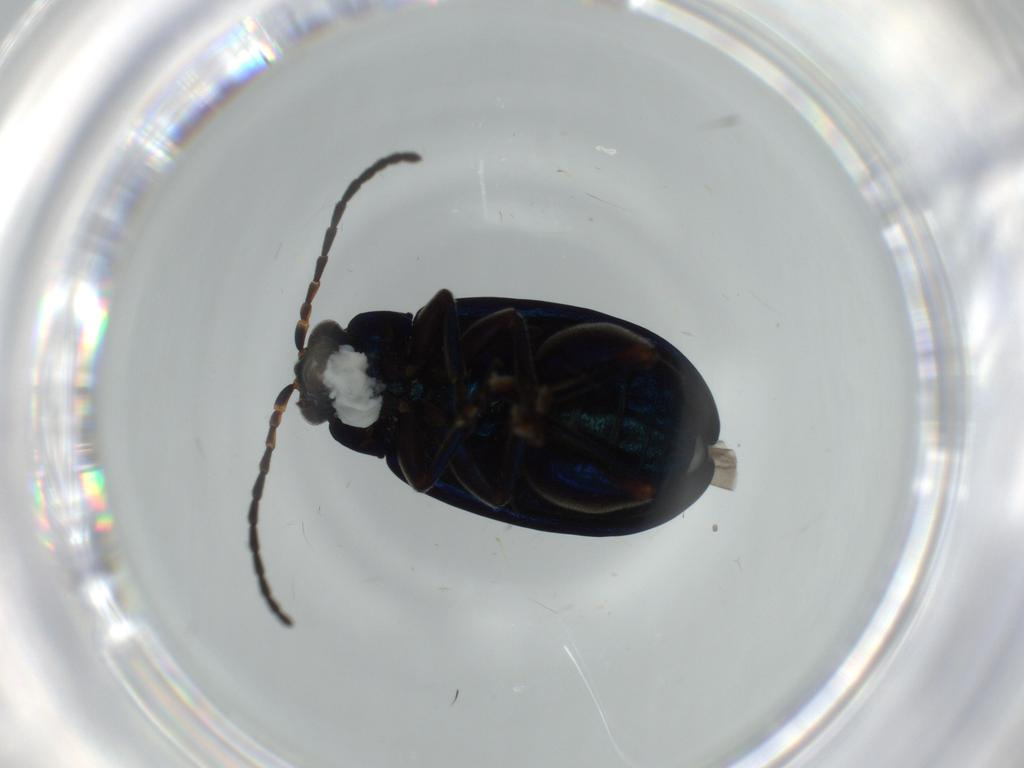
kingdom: Animalia
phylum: Arthropoda
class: Insecta
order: Coleoptera
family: Chrysomelidae
